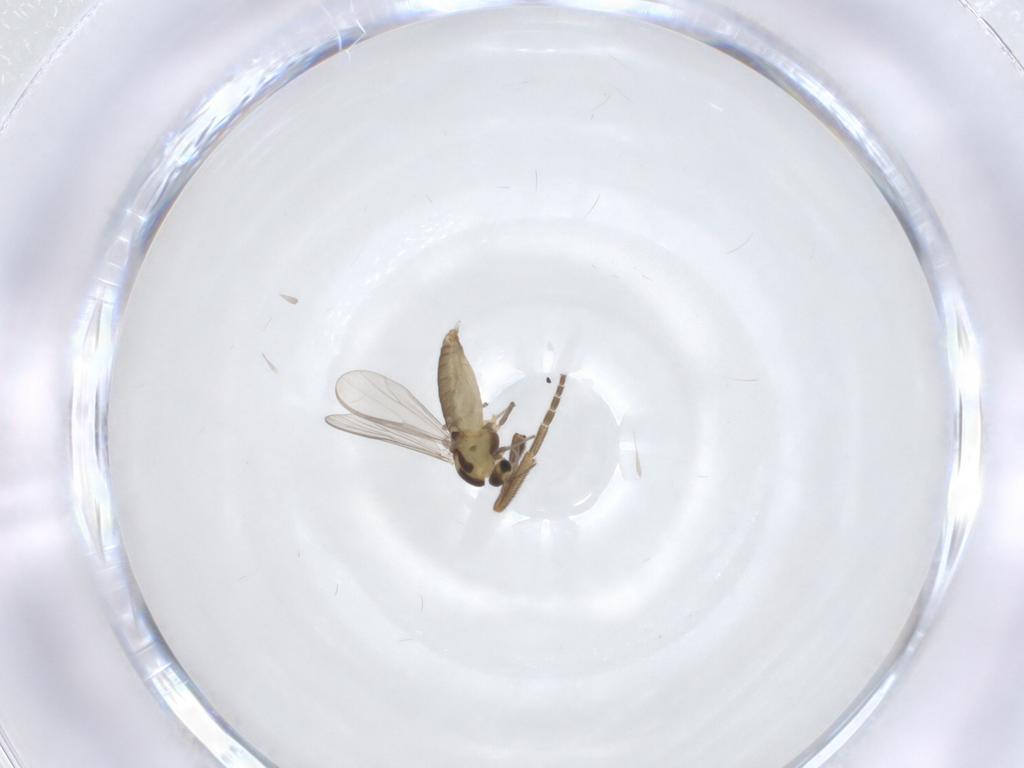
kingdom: Animalia
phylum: Arthropoda
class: Insecta
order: Diptera
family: Chironomidae
